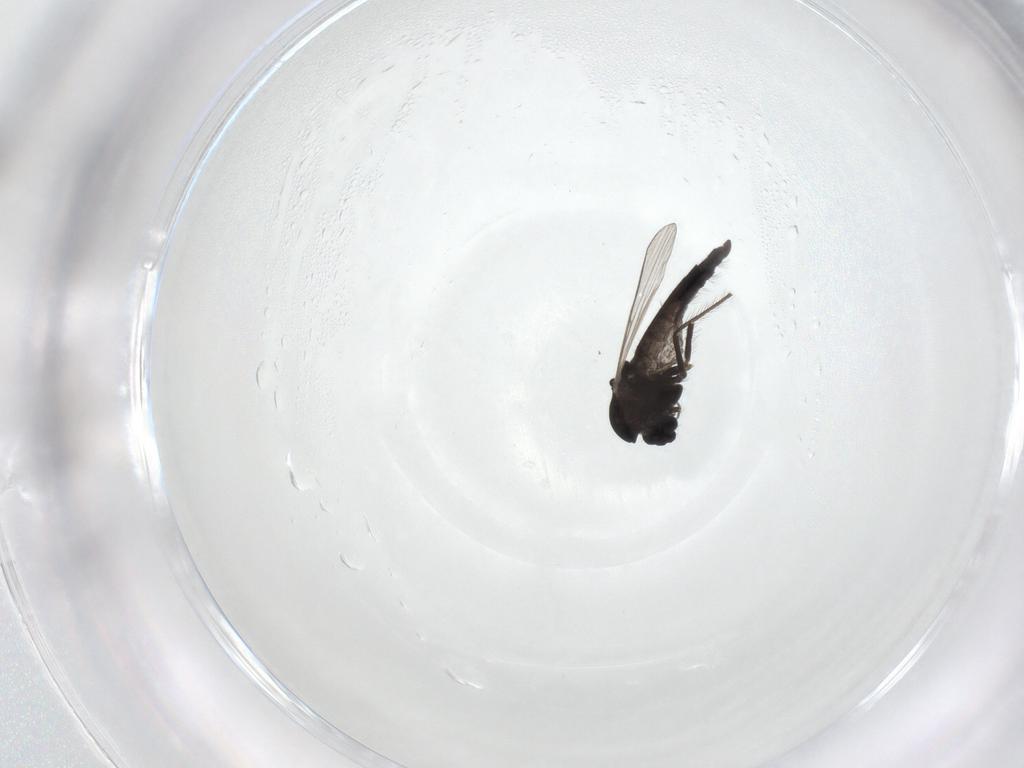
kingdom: Animalia
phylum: Arthropoda
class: Insecta
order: Diptera
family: Chironomidae
